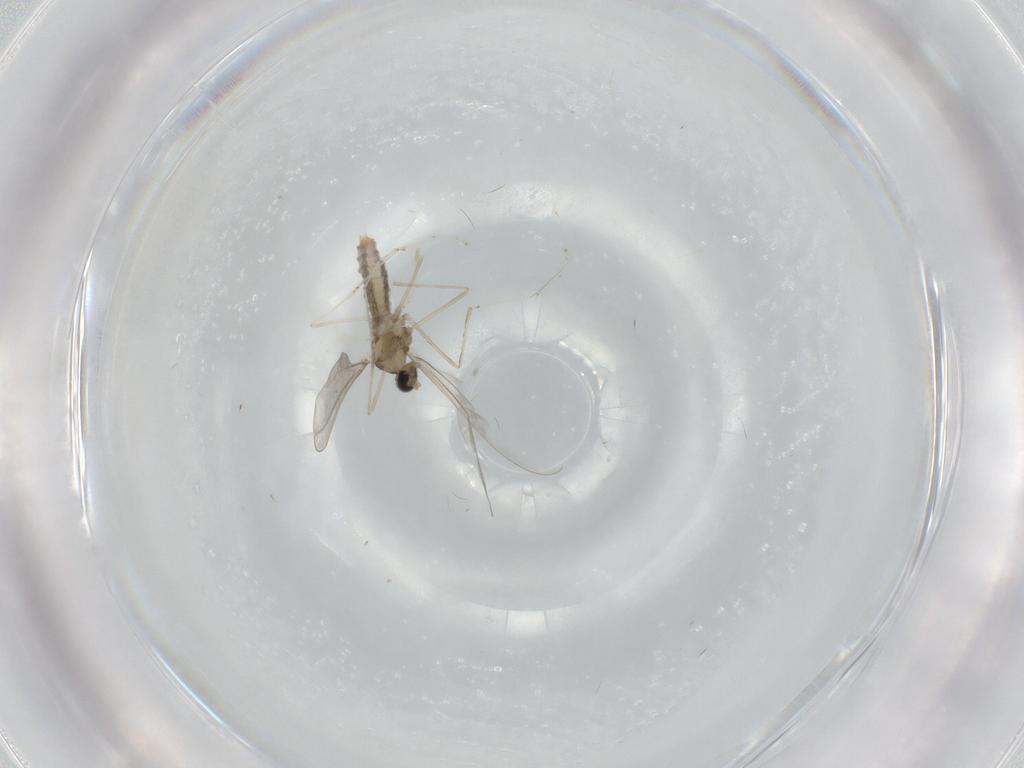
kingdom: Animalia
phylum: Arthropoda
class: Insecta
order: Diptera
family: Cecidomyiidae
